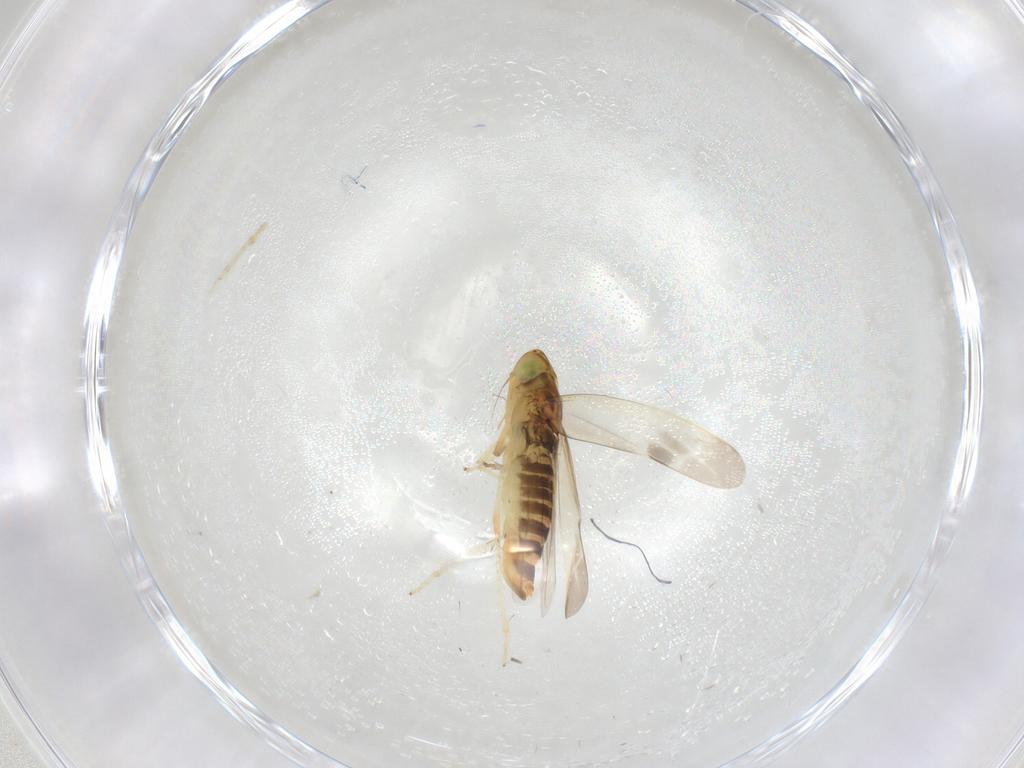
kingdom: Animalia
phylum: Arthropoda
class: Insecta
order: Hemiptera
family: Cicadellidae
